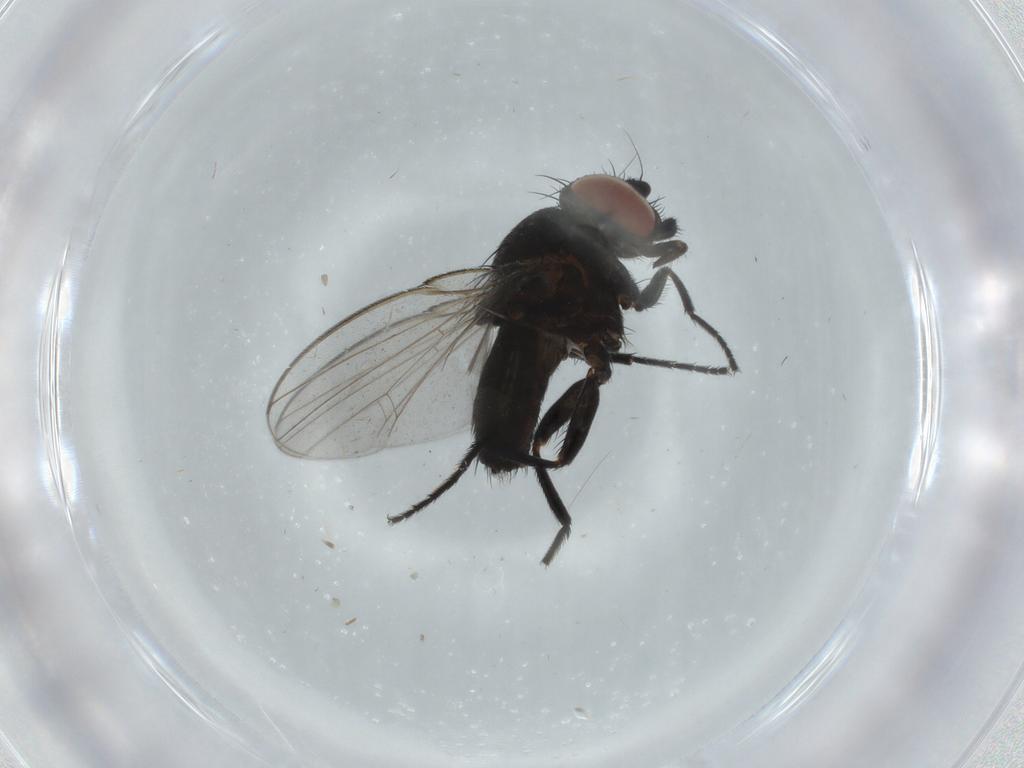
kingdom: Animalia
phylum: Arthropoda
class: Insecta
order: Diptera
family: Milichiidae
